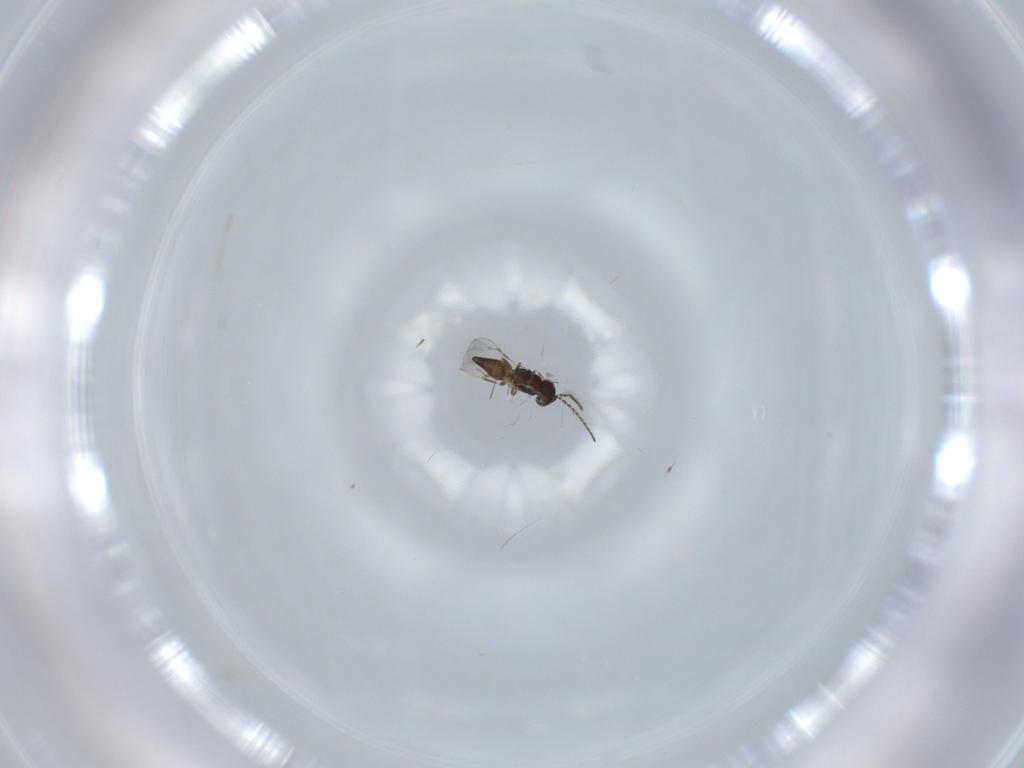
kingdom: Animalia
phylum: Arthropoda
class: Insecta
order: Hymenoptera
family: Ceraphronidae
